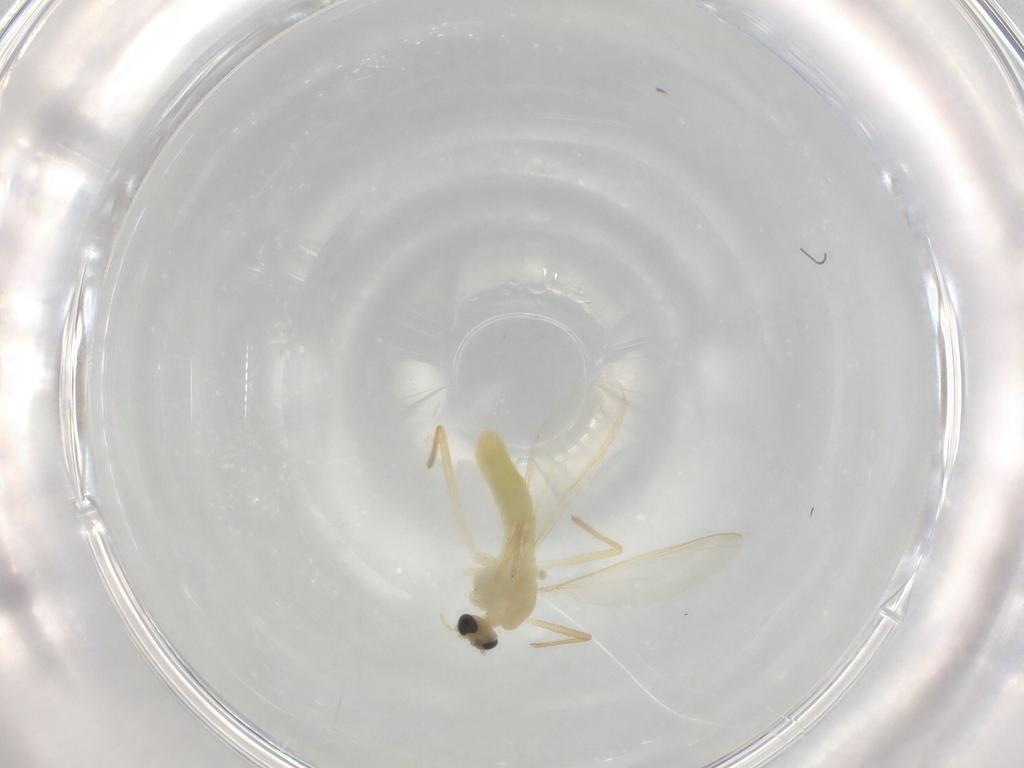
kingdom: Animalia
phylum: Arthropoda
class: Insecta
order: Diptera
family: Chironomidae
